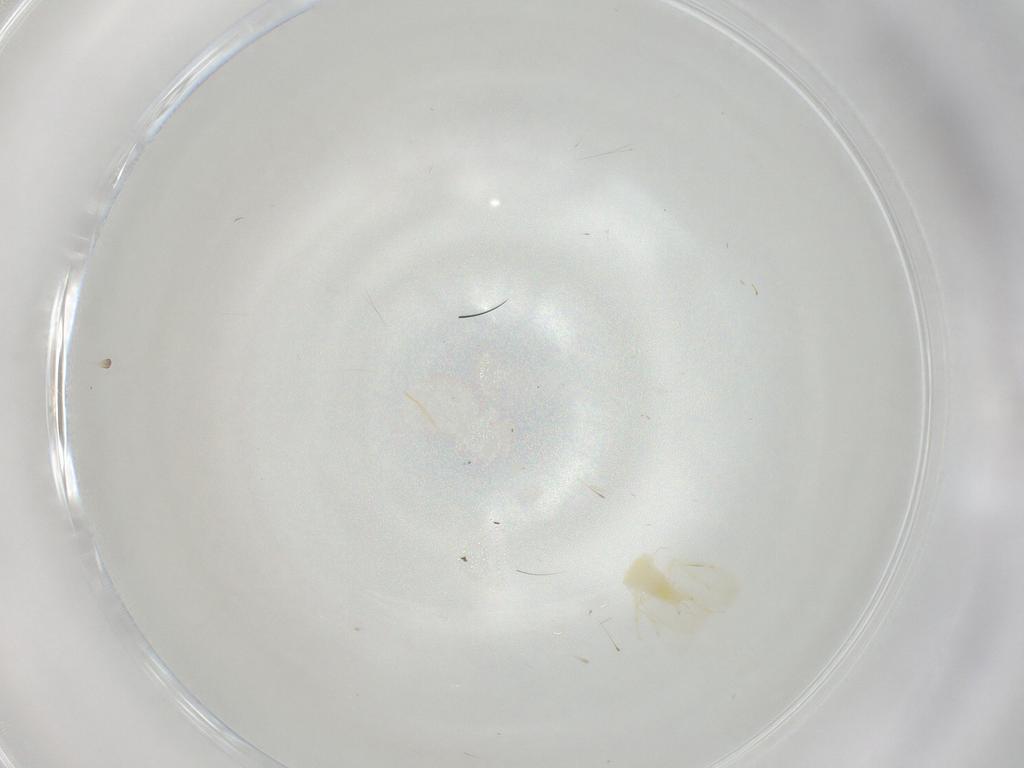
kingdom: Animalia
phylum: Arthropoda
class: Insecta
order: Hemiptera
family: Aleyrodidae
